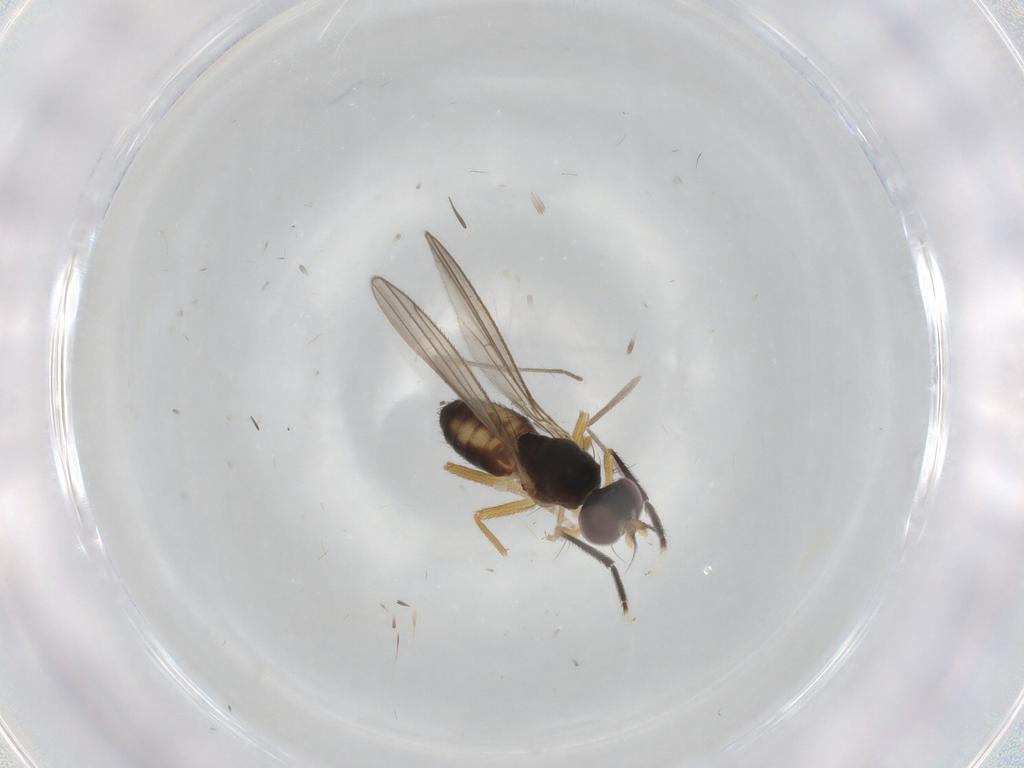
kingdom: Animalia
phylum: Arthropoda
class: Insecta
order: Diptera
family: Anthomyzidae
